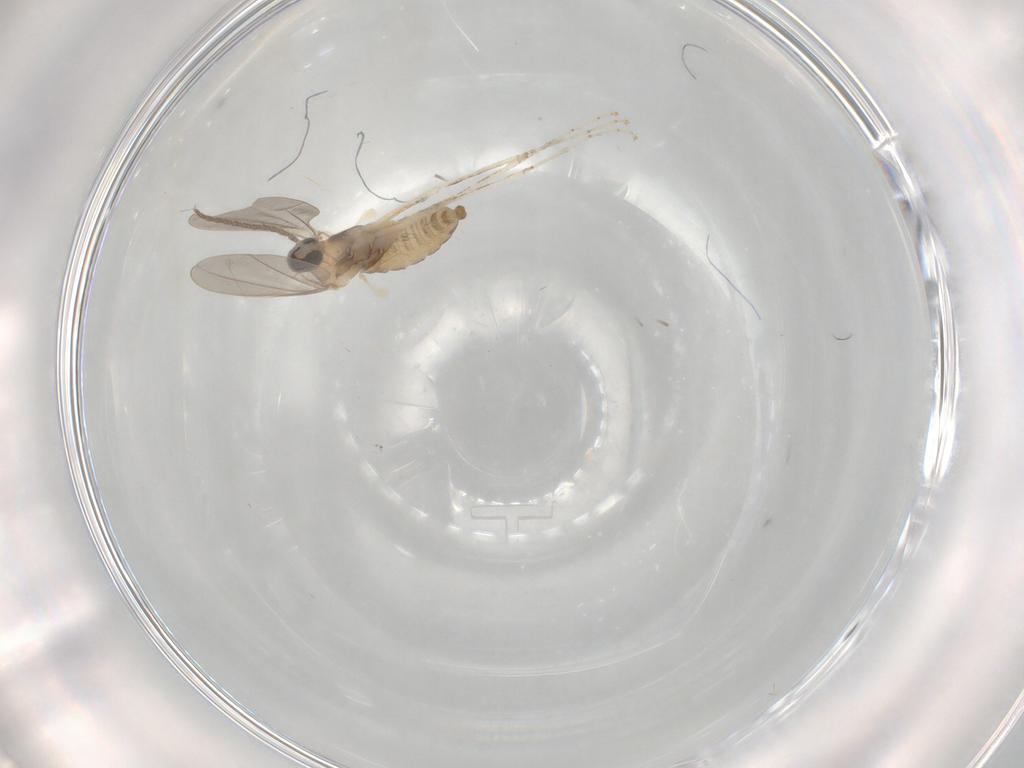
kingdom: Animalia
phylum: Arthropoda
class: Insecta
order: Diptera
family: Cecidomyiidae
